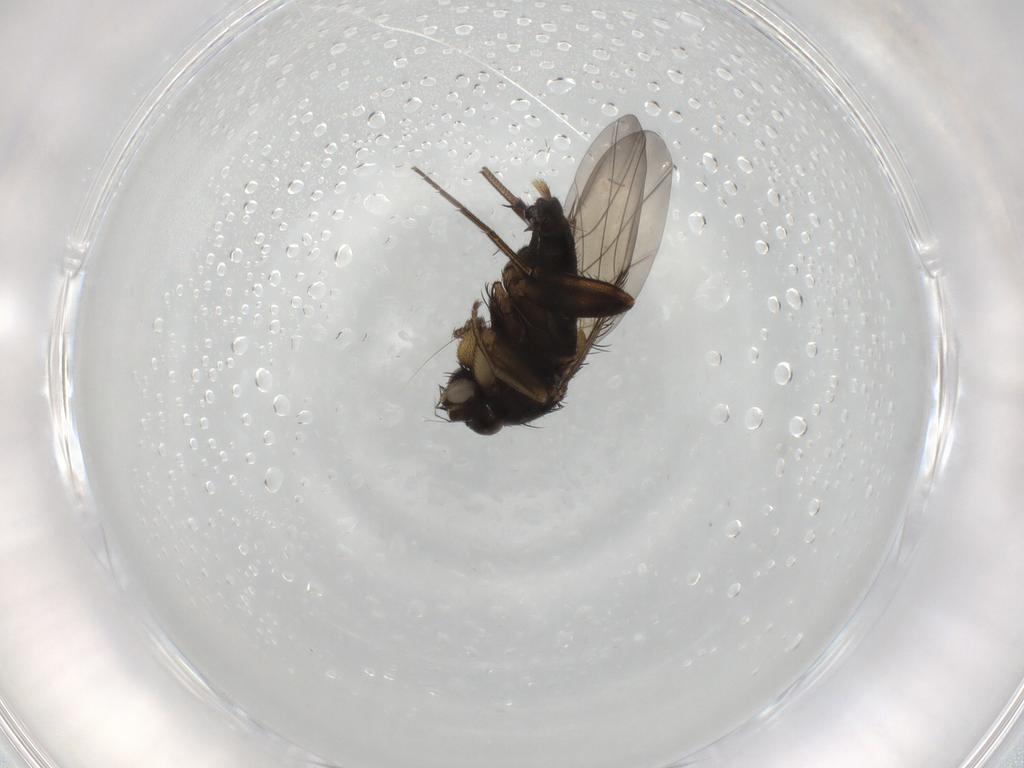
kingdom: Animalia
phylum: Arthropoda
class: Insecta
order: Diptera
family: Phoridae
